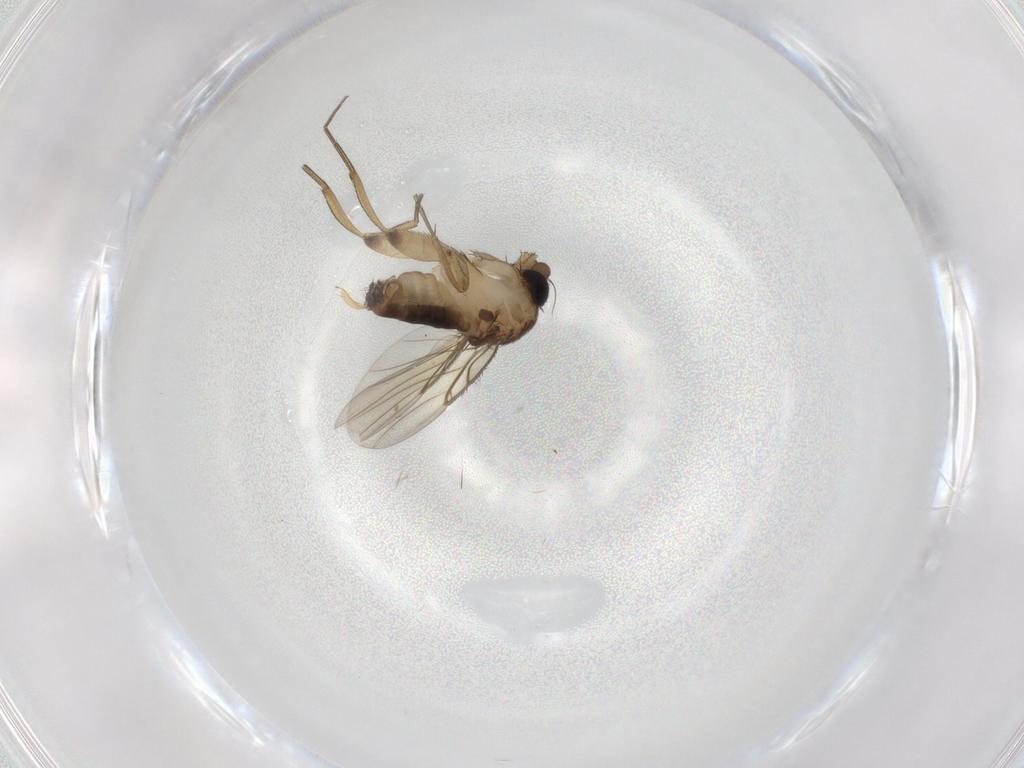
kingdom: Animalia
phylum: Arthropoda
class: Insecta
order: Diptera
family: Phoridae
